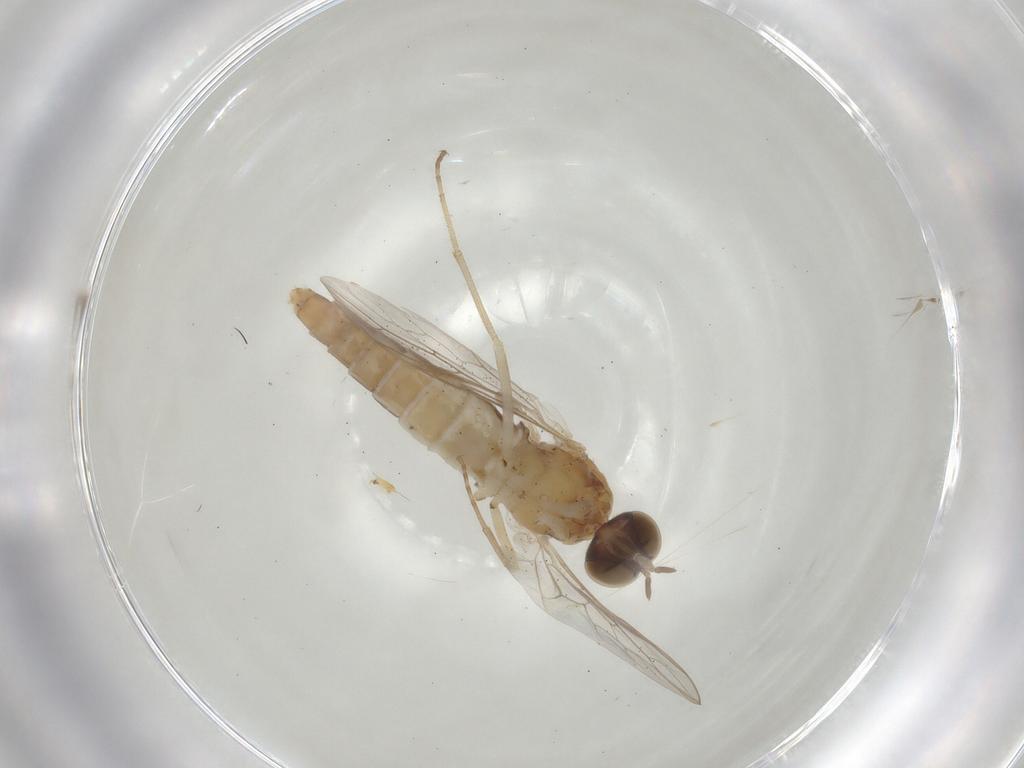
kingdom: Animalia
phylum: Arthropoda
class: Insecta
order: Diptera
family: Scenopinidae
